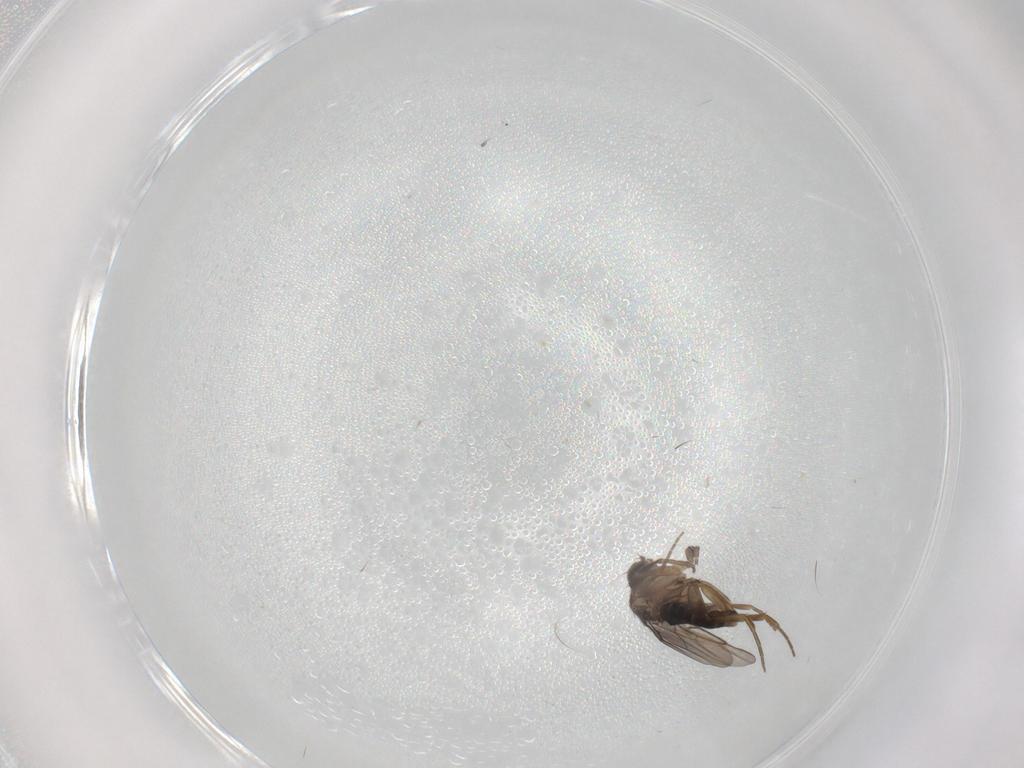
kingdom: Animalia
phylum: Arthropoda
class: Insecta
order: Diptera
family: Phoridae
